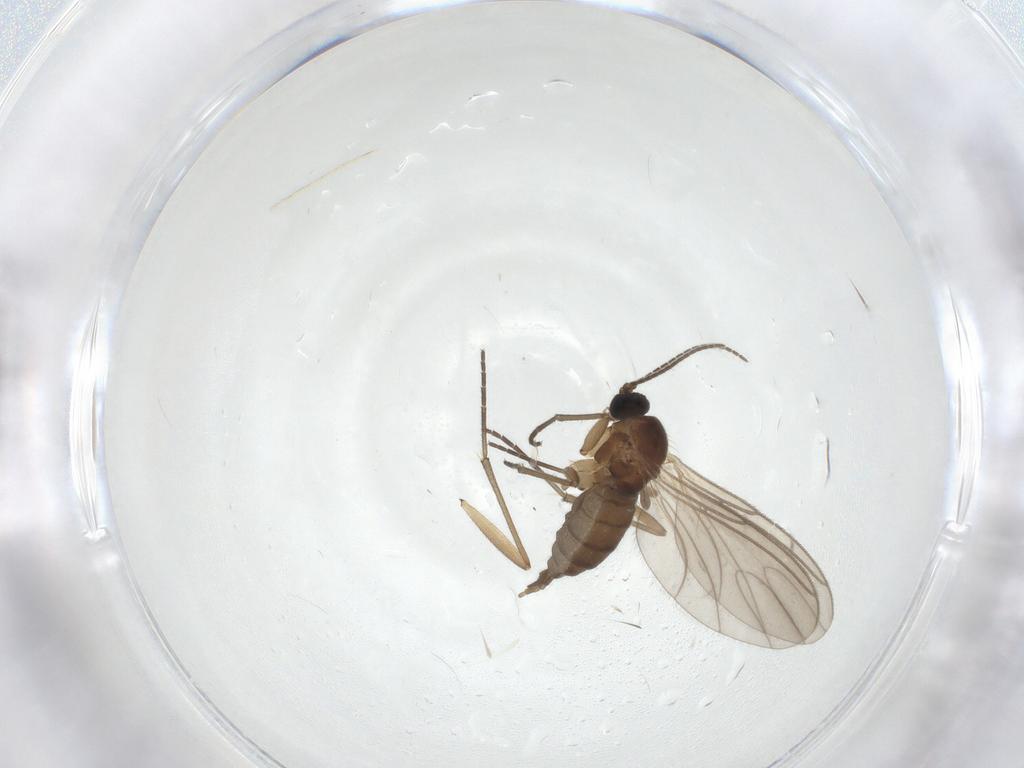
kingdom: Animalia
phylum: Arthropoda
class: Insecta
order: Diptera
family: Sciaridae
